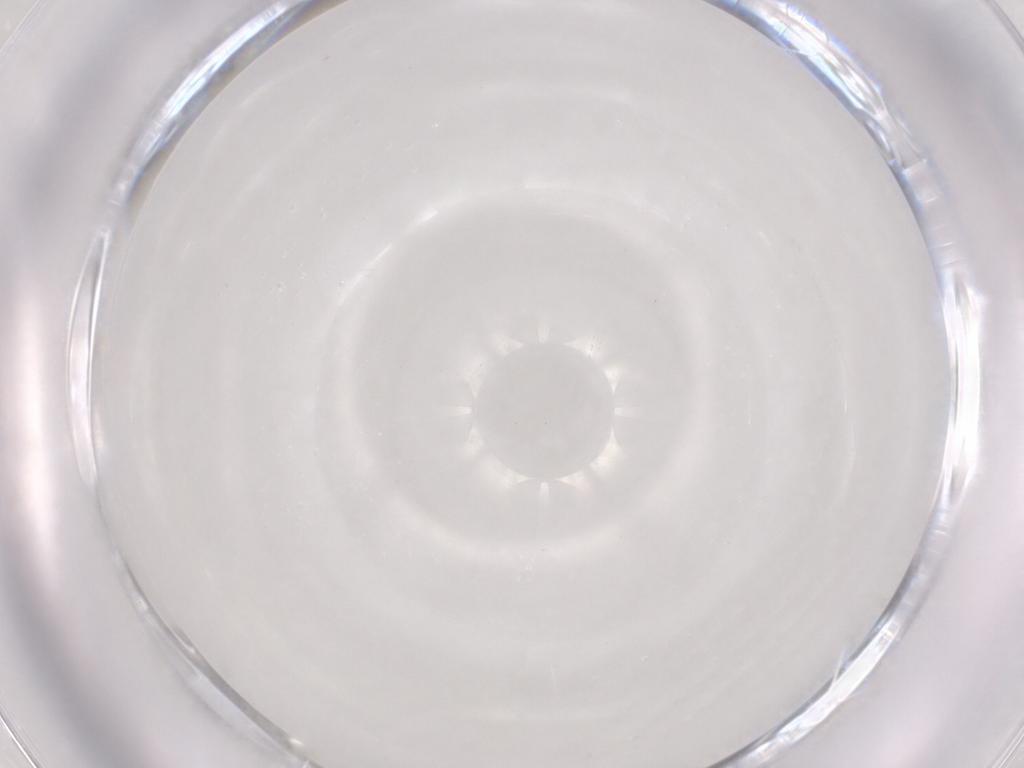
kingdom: Animalia
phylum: Arthropoda
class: Insecta
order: Diptera
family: Ceratopogonidae
